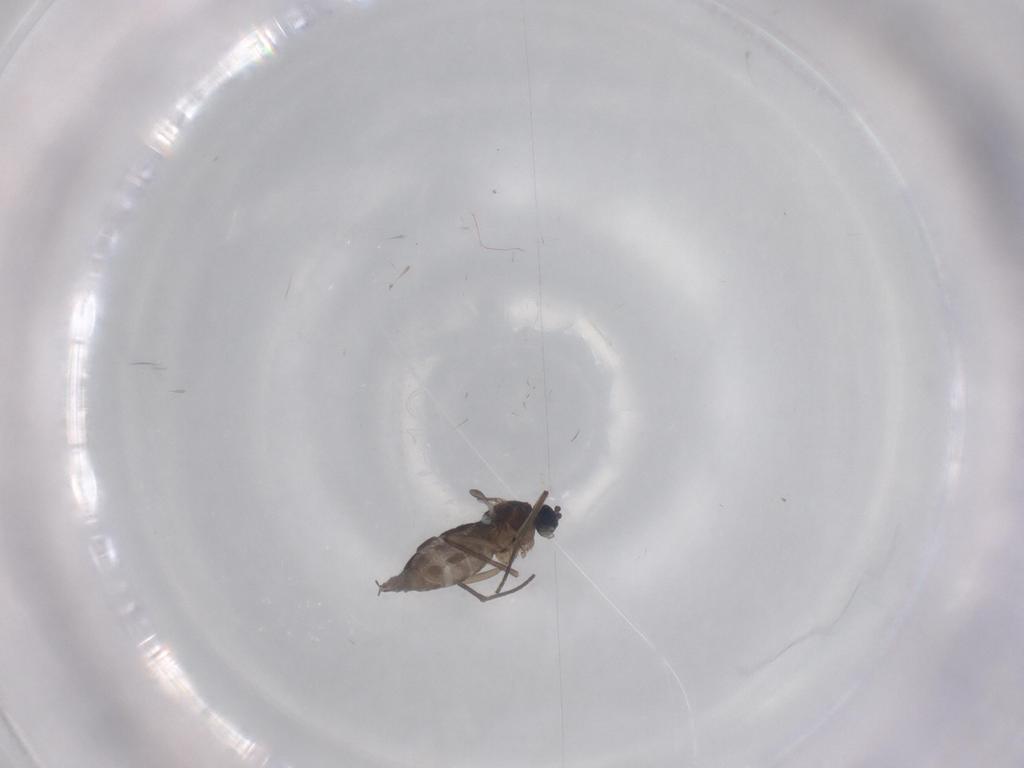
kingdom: Animalia
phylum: Arthropoda
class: Insecta
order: Diptera
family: Sciaridae
